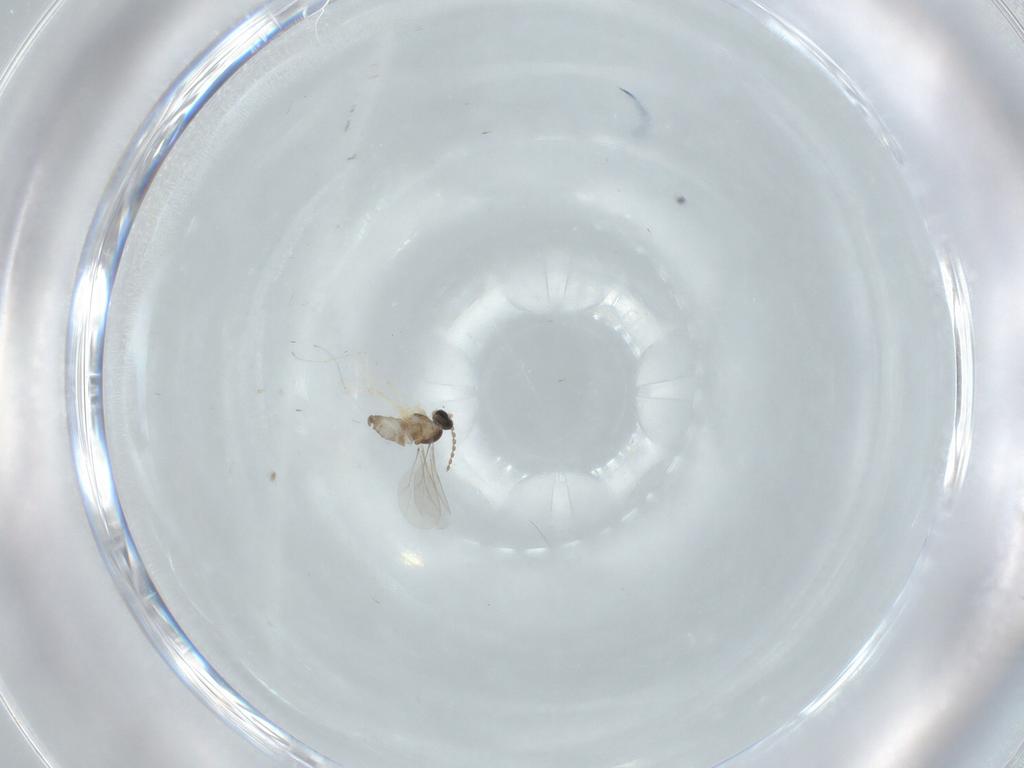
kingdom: Animalia
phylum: Arthropoda
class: Insecta
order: Diptera
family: Cecidomyiidae
